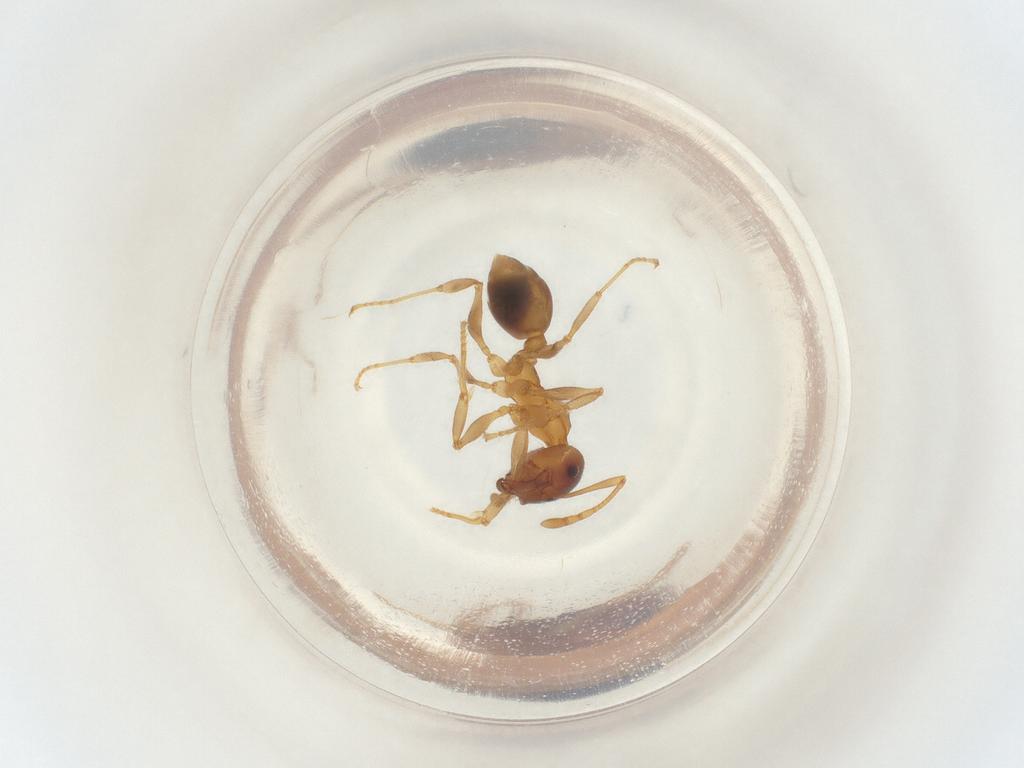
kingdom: Animalia
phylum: Arthropoda
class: Insecta
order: Hymenoptera
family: Formicidae
